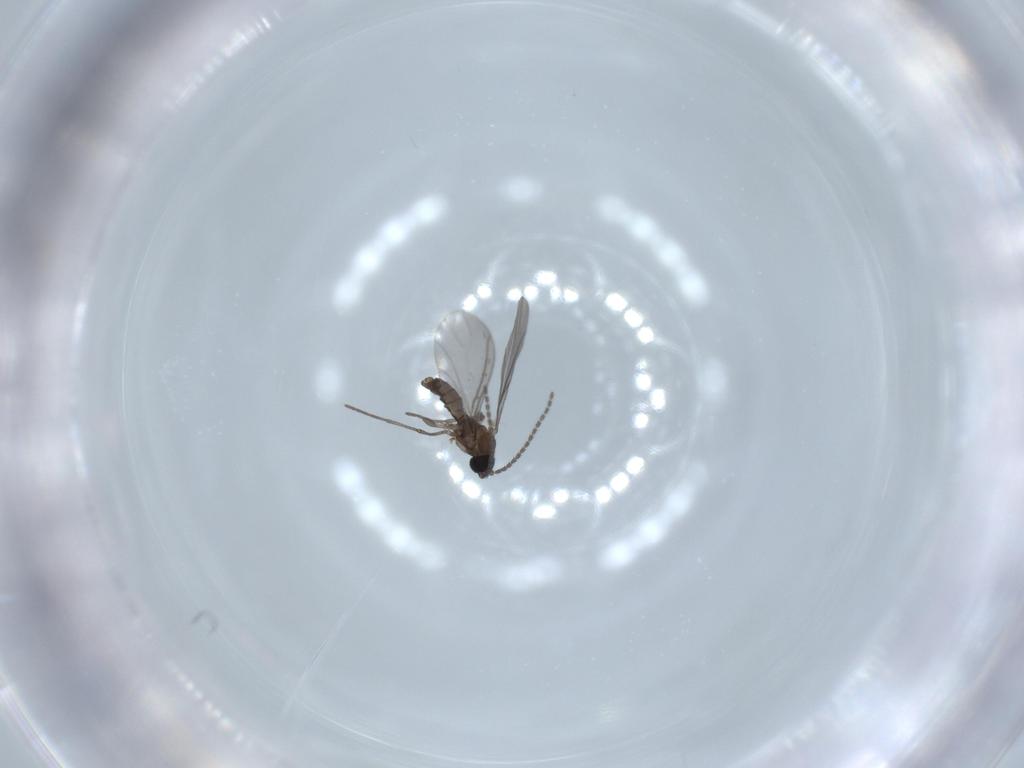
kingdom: Animalia
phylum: Arthropoda
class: Insecta
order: Diptera
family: Sciaridae
